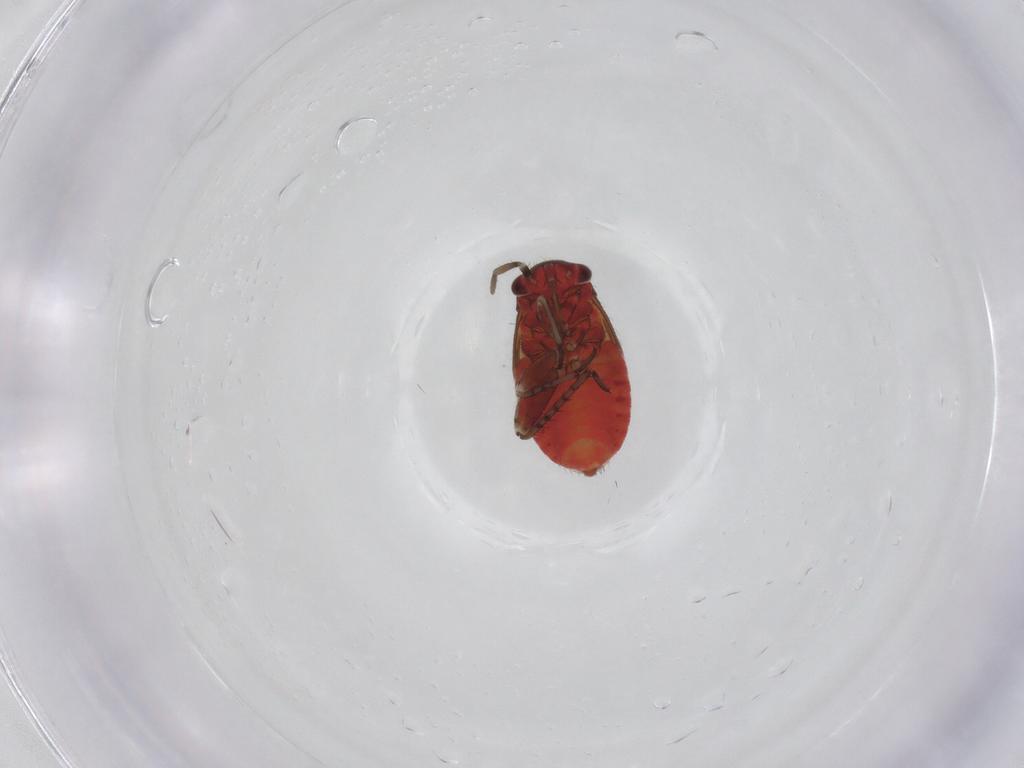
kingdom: Animalia
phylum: Arthropoda
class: Insecta
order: Hemiptera
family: Miridae
